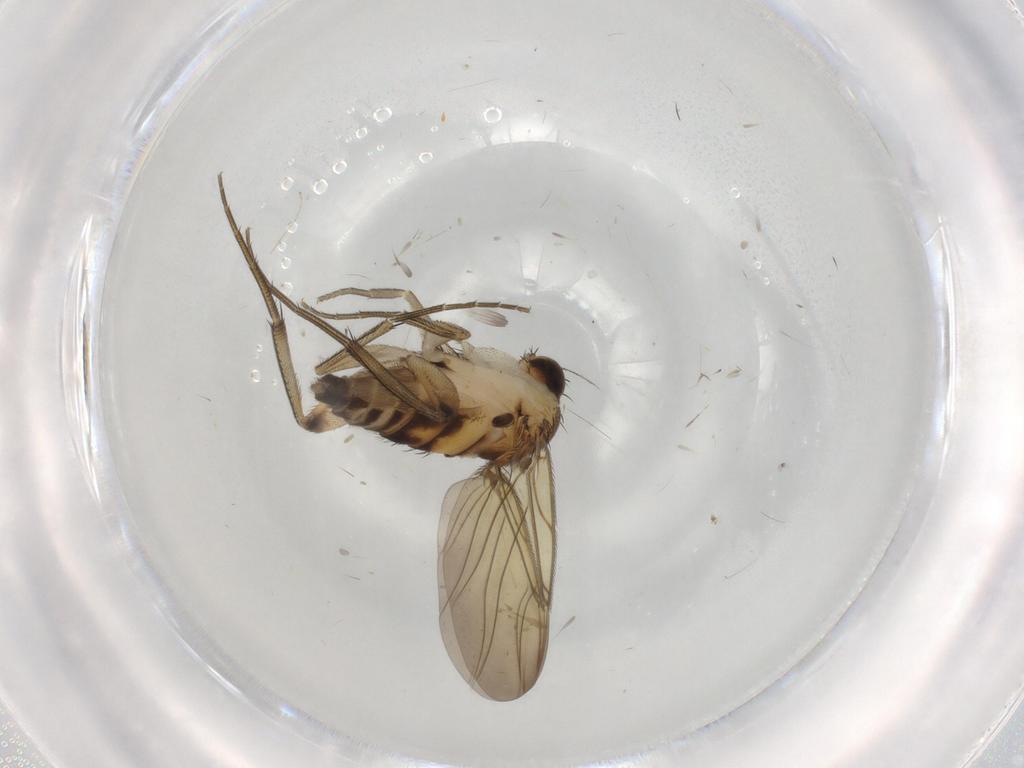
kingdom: Animalia
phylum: Arthropoda
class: Insecta
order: Diptera
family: Phoridae
